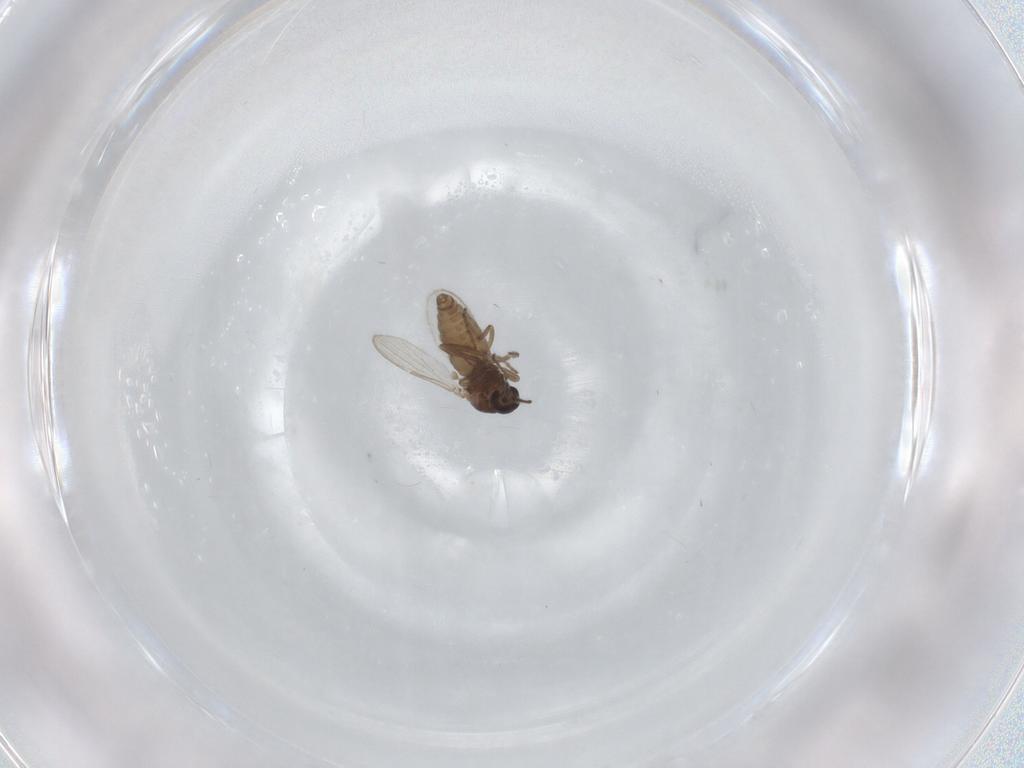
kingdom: Animalia
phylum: Arthropoda
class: Insecta
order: Diptera
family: Ceratopogonidae
